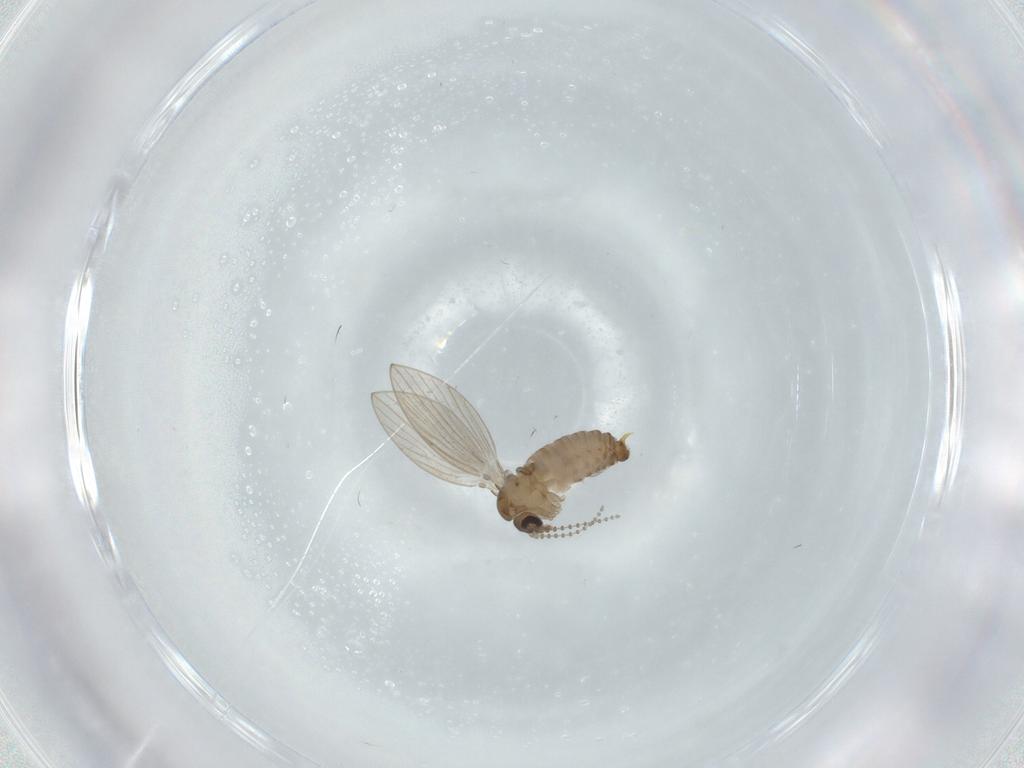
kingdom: Animalia
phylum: Arthropoda
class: Insecta
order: Diptera
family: Psychodidae
